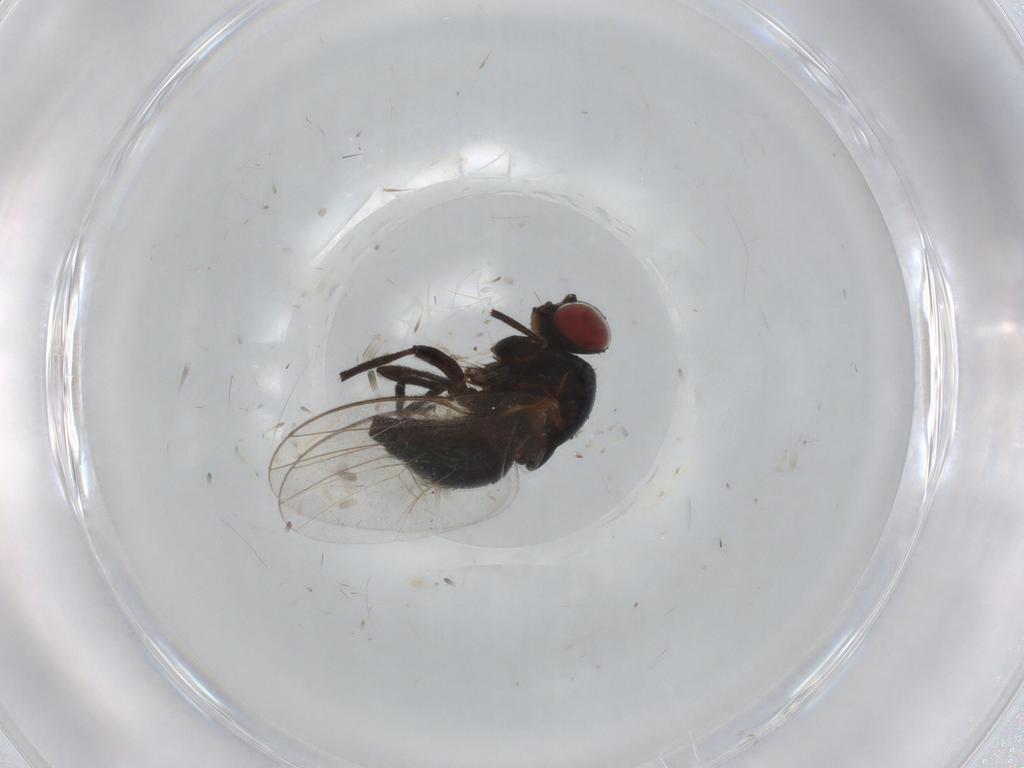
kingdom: Animalia
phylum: Arthropoda
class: Insecta
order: Diptera
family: Agromyzidae
